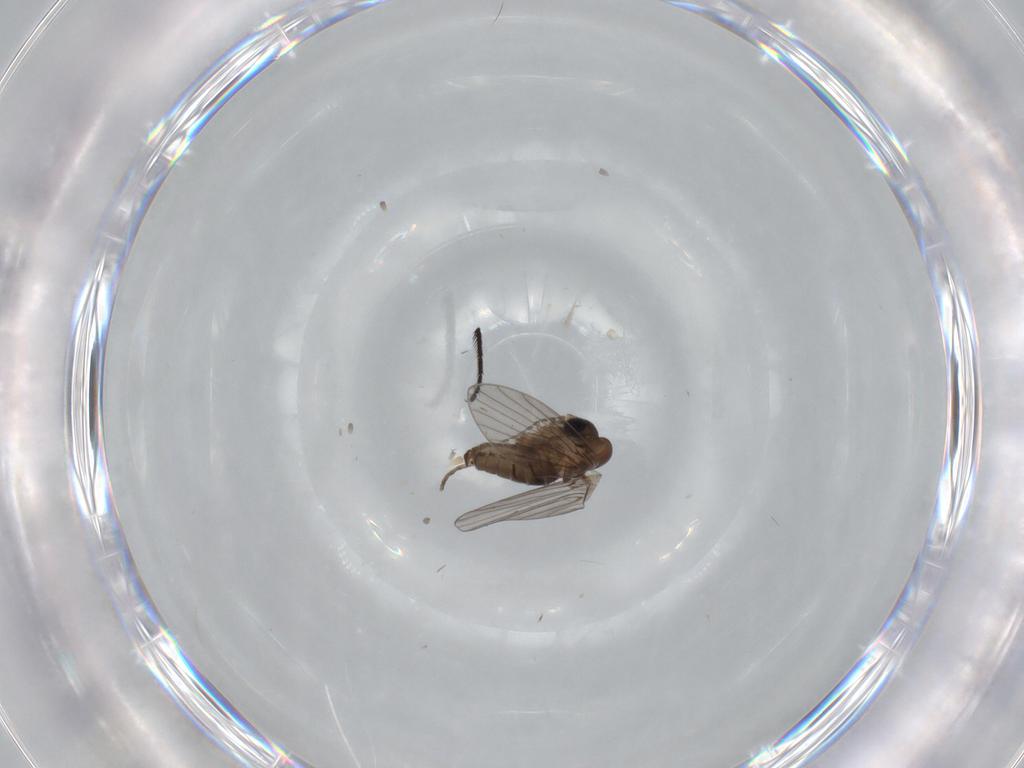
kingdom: Animalia
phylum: Arthropoda
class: Insecta
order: Diptera
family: Psychodidae
